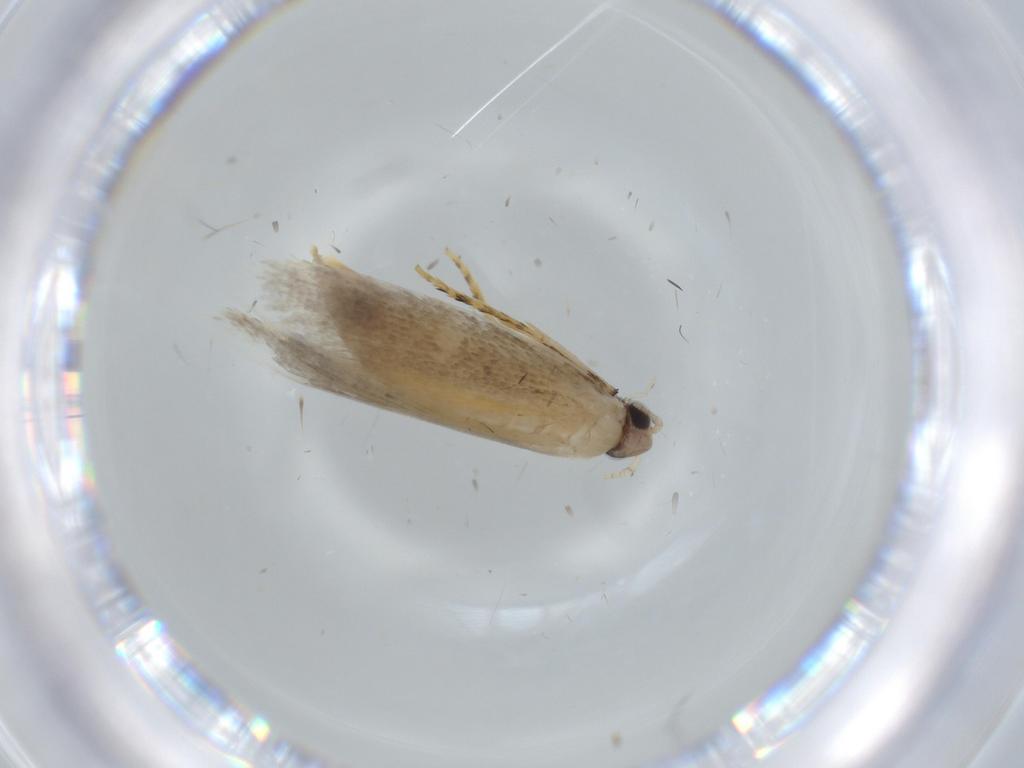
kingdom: Animalia
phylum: Arthropoda
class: Insecta
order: Lepidoptera
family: Tineidae
